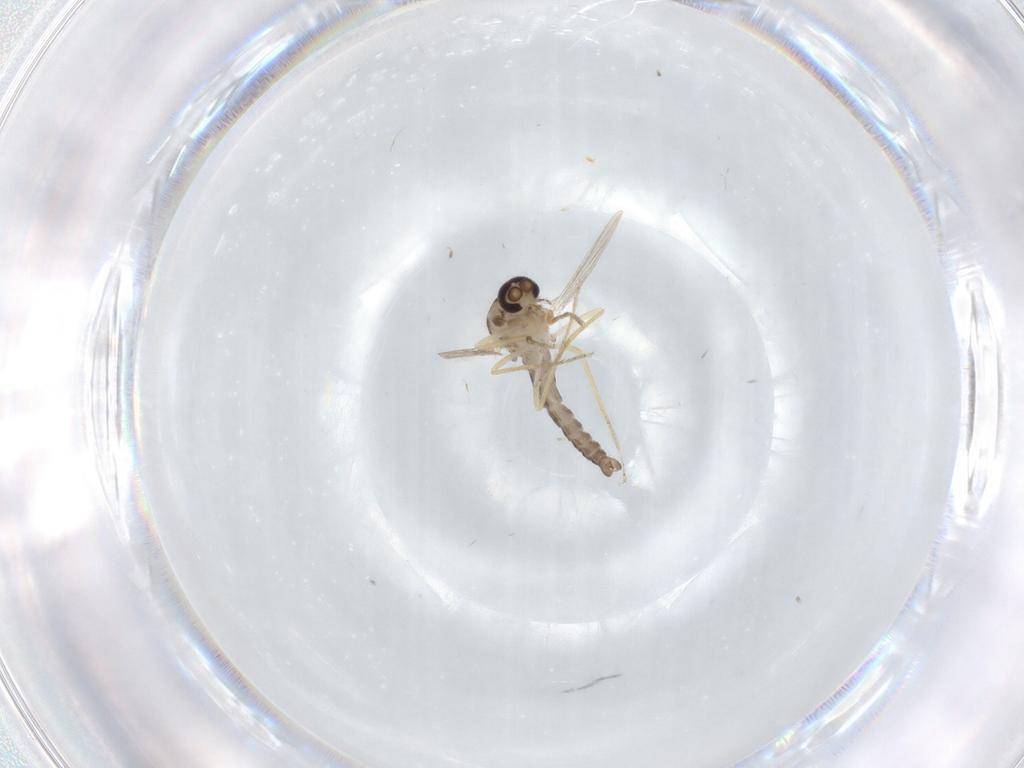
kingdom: Animalia
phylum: Arthropoda
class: Insecta
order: Diptera
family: Ceratopogonidae
